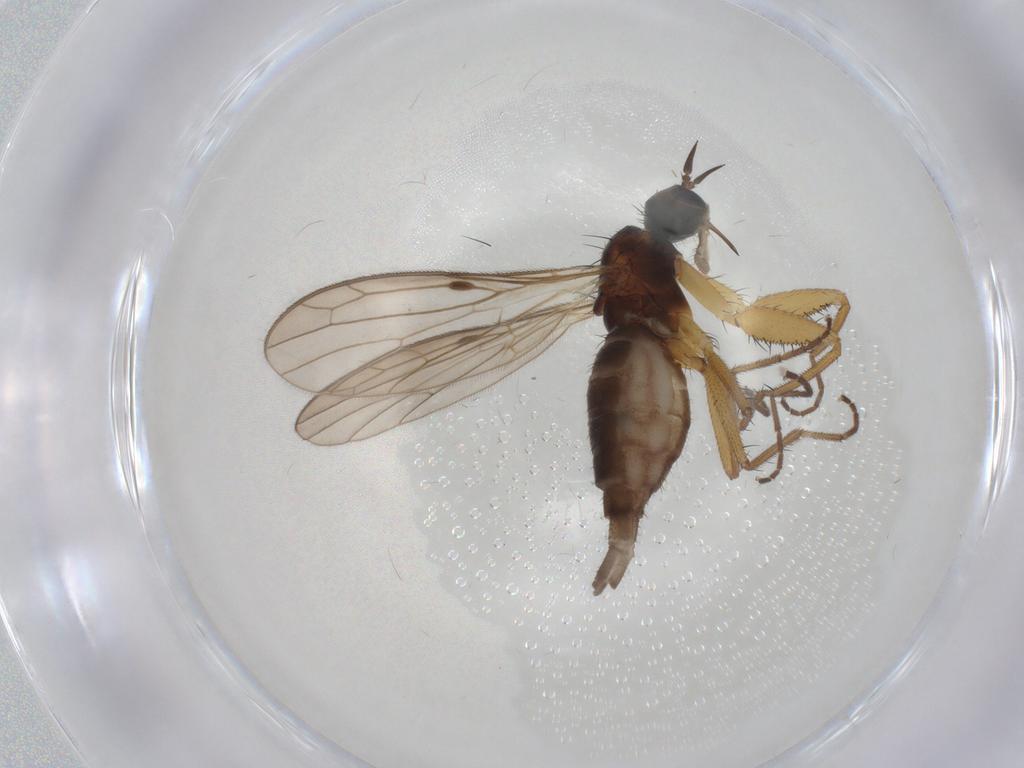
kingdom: Animalia
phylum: Arthropoda
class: Insecta
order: Diptera
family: Empididae
